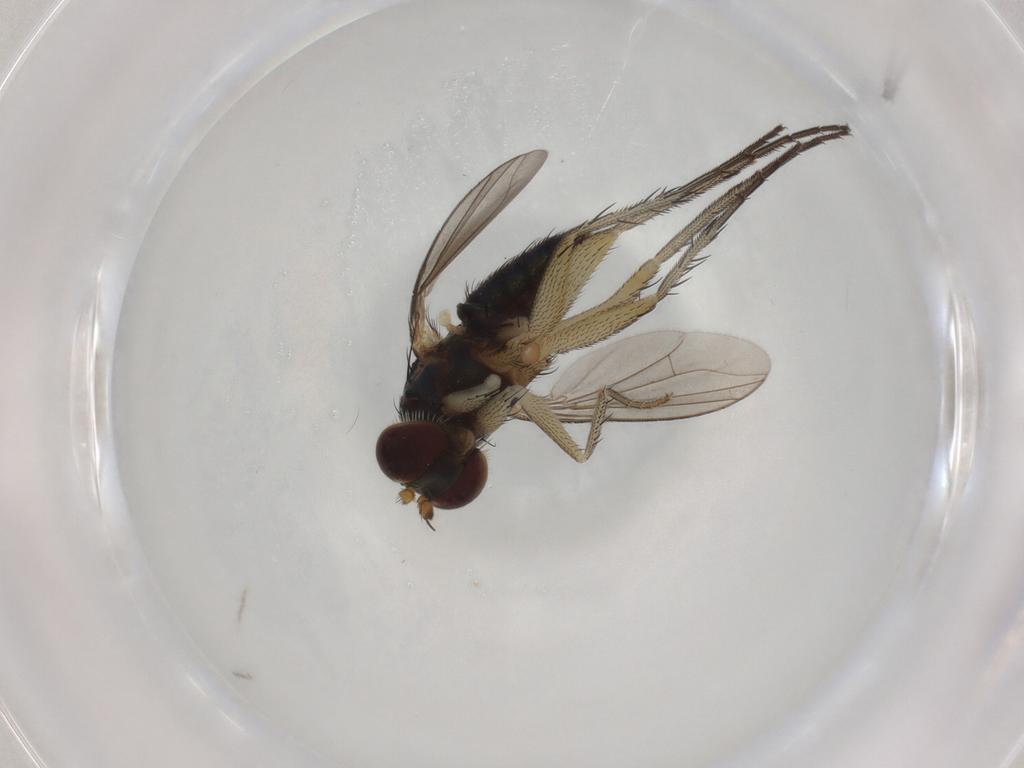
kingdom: Animalia
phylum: Arthropoda
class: Insecta
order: Diptera
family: Dolichopodidae
